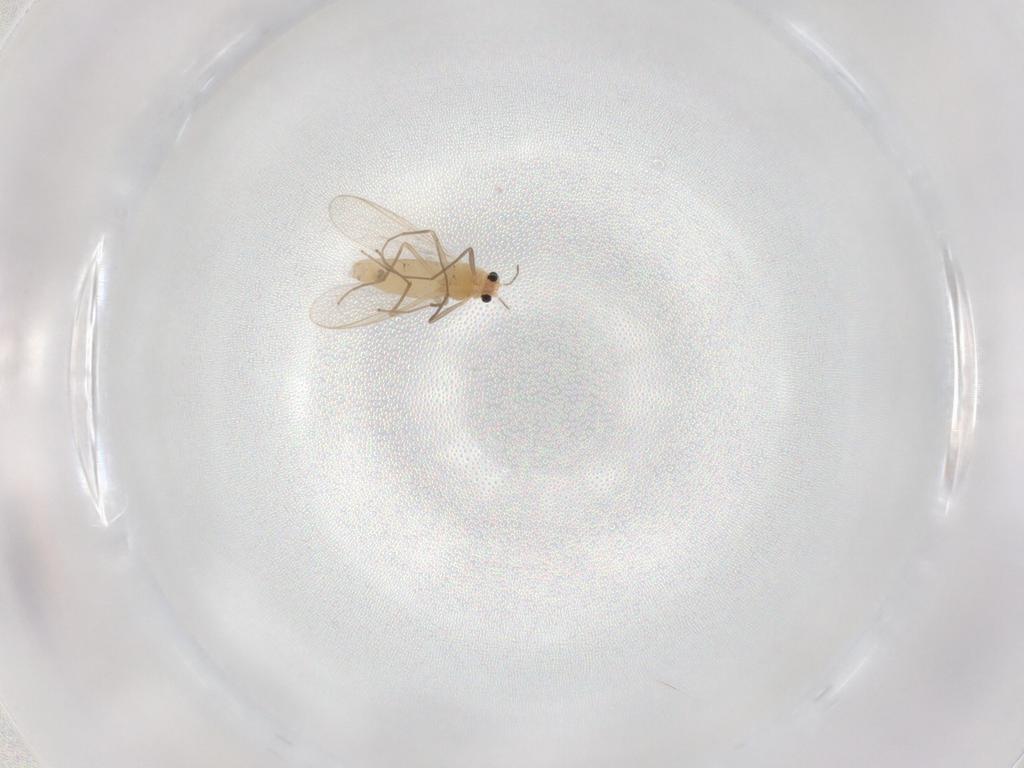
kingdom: Animalia
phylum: Arthropoda
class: Insecta
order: Diptera
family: Chironomidae
